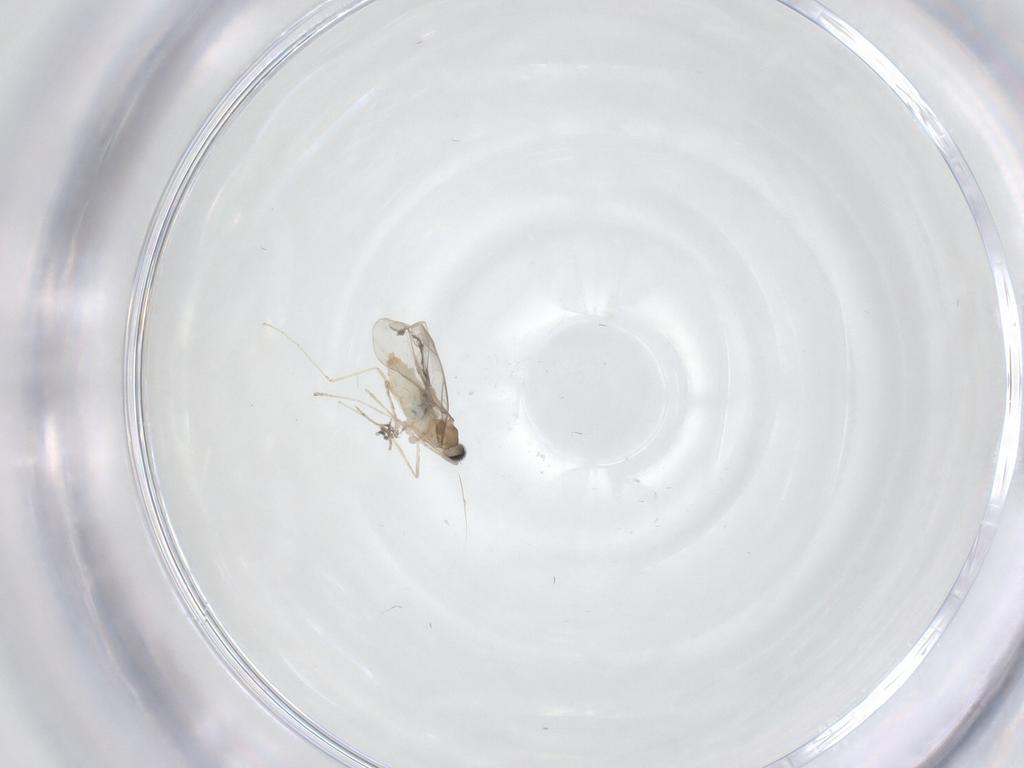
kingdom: Animalia
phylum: Arthropoda
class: Insecta
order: Diptera
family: Cecidomyiidae
